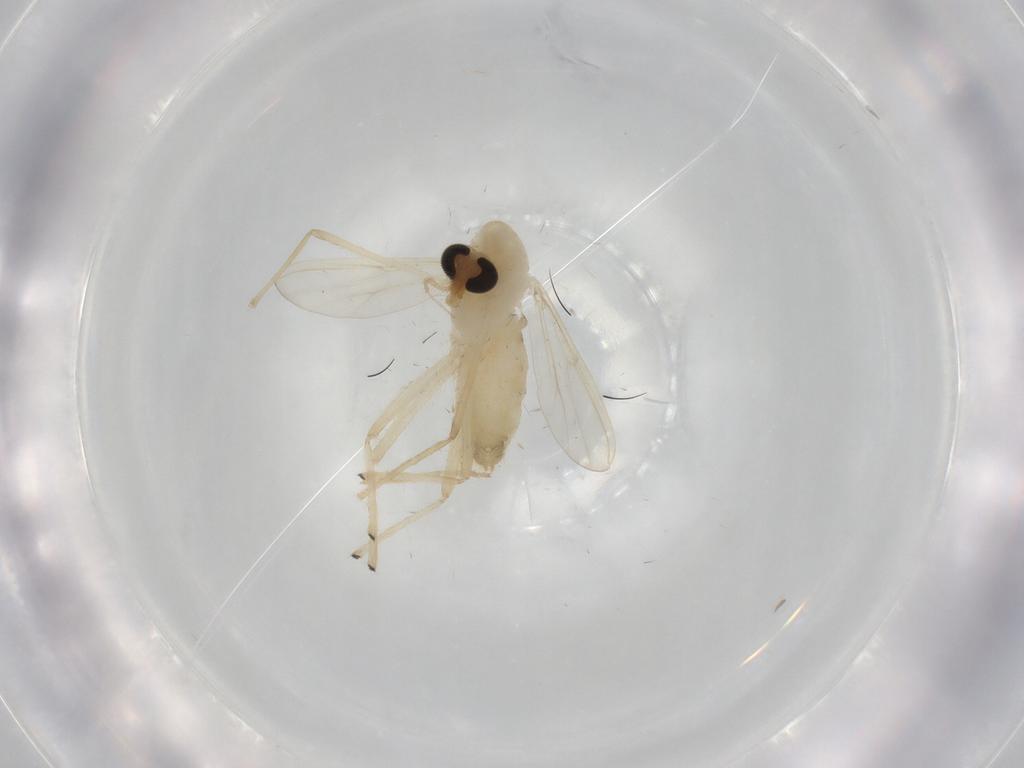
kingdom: Animalia
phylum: Arthropoda
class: Insecta
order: Diptera
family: Chironomidae
